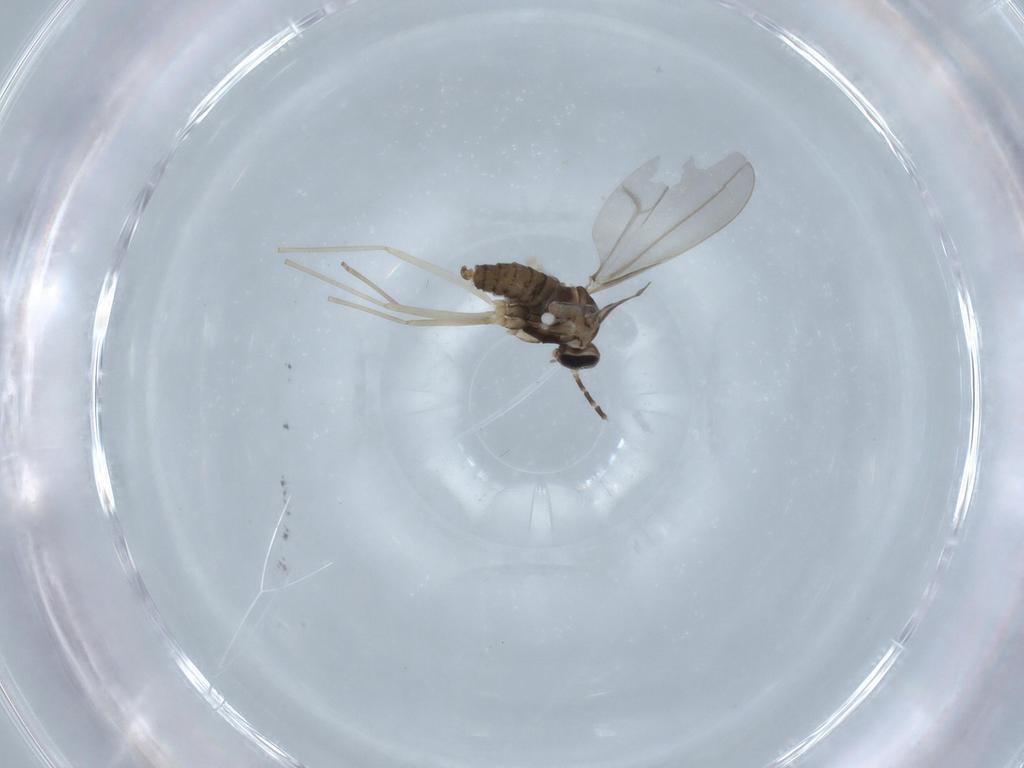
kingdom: Animalia
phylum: Arthropoda
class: Insecta
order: Diptera
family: Cecidomyiidae
